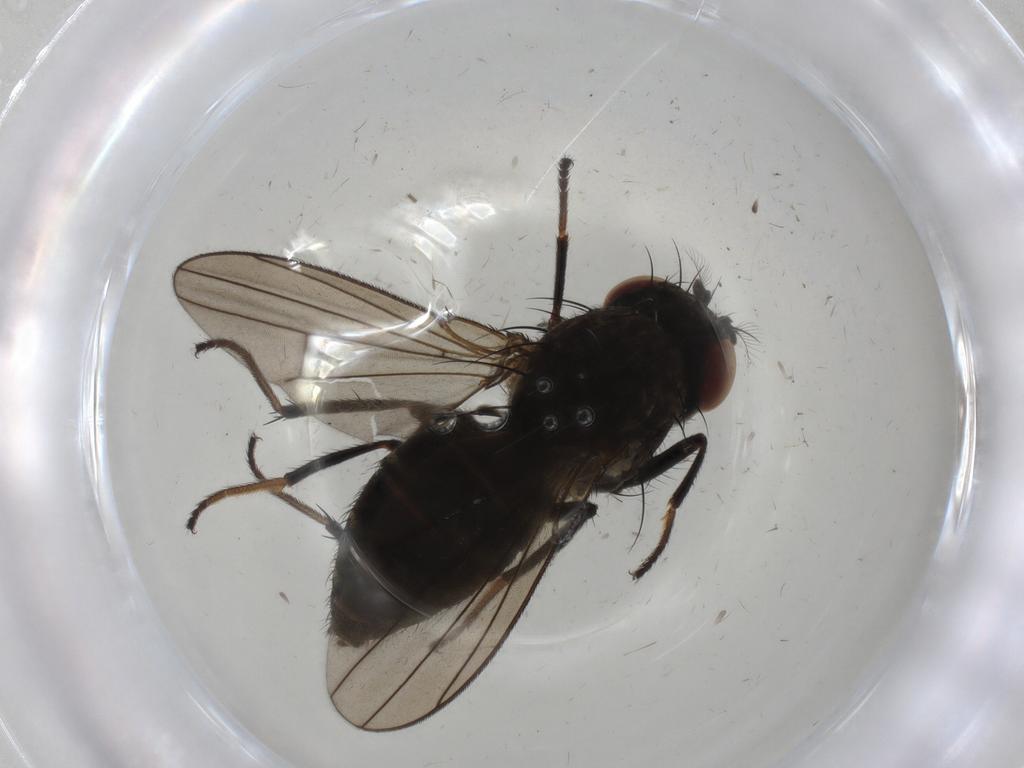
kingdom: Animalia
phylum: Arthropoda
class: Insecta
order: Diptera
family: Ephydridae
